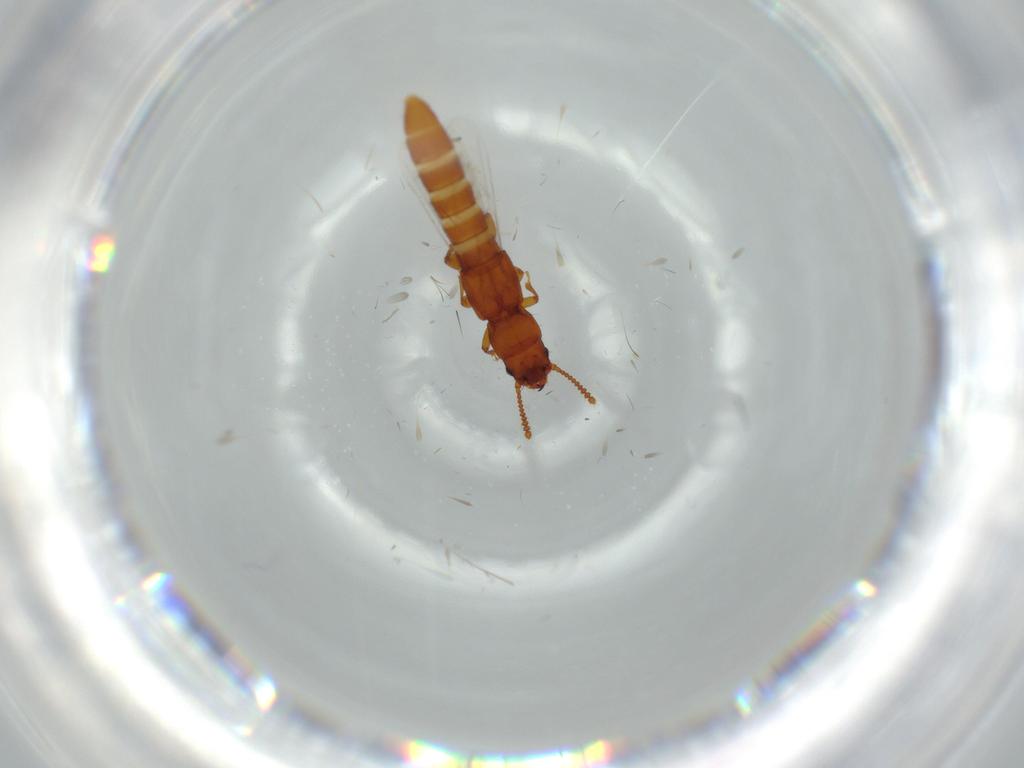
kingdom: Animalia
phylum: Arthropoda
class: Insecta
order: Coleoptera
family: Staphylinidae
